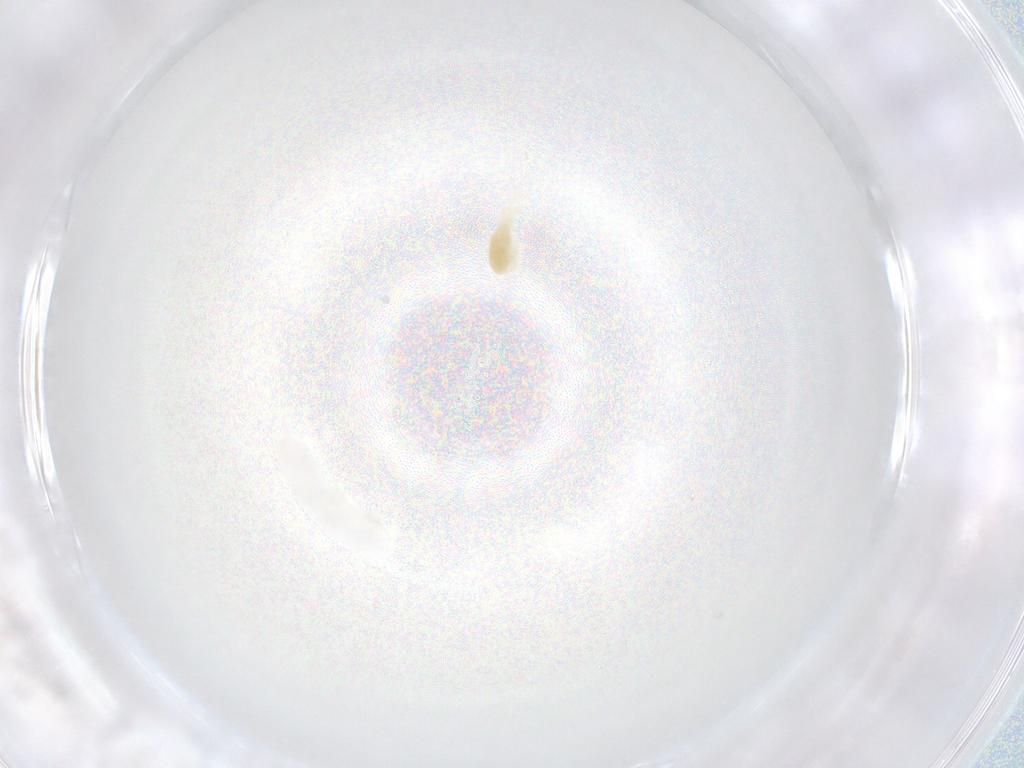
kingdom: Animalia
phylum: Arthropoda
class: Arachnida
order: Trombidiformes
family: Rhagidiidae
